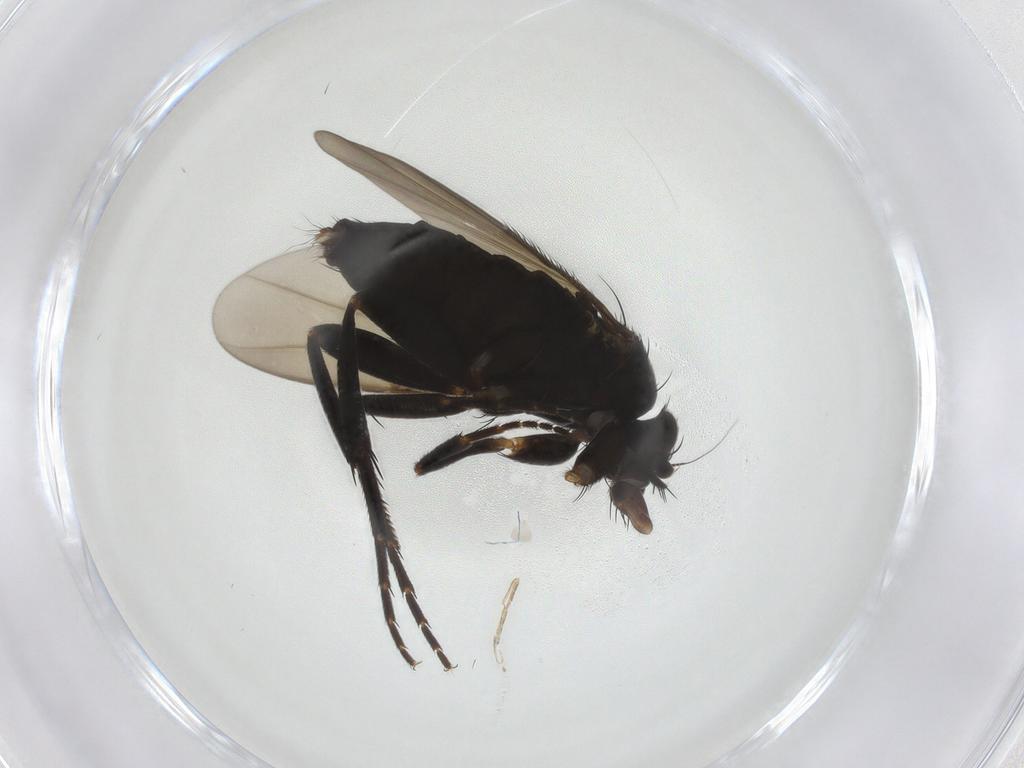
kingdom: Animalia
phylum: Arthropoda
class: Insecta
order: Diptera
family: Phoridae
